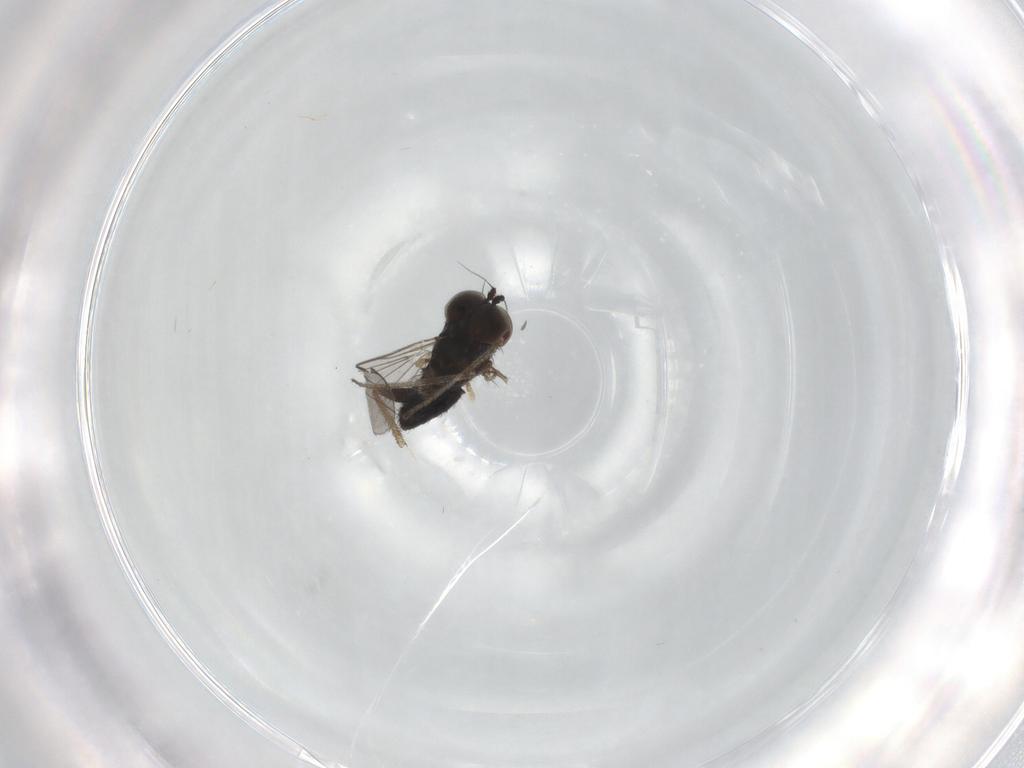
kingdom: Animalia
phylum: Arthropoda
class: Insecta
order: Diptera
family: Dolichopodidae
